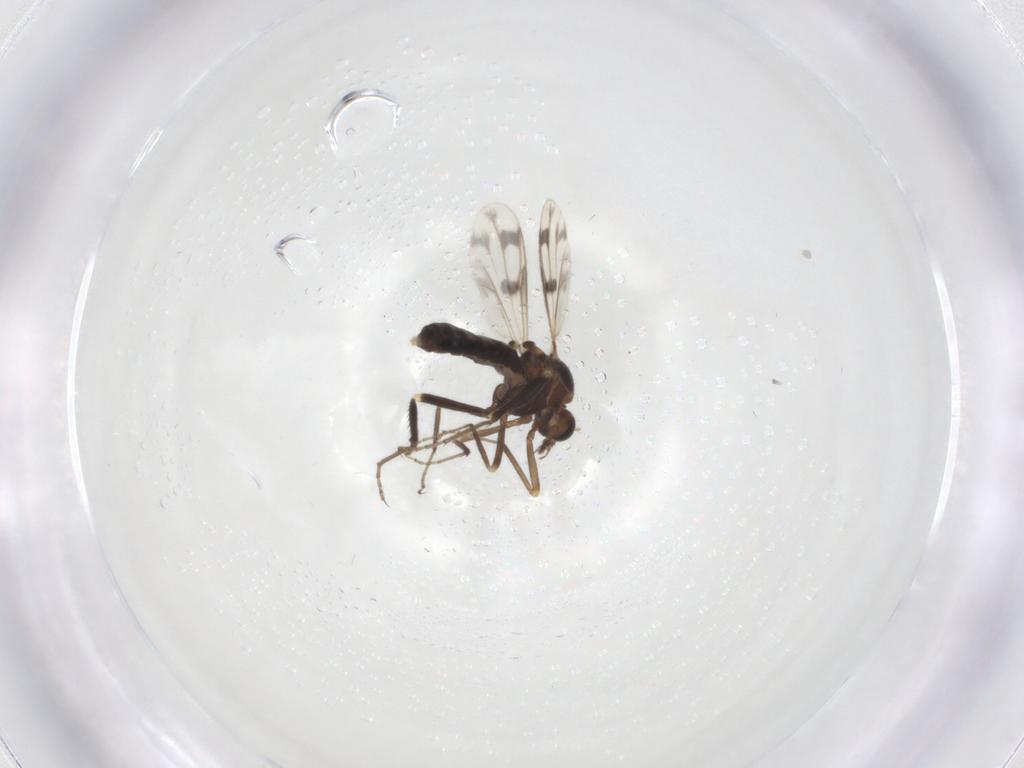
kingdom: Animalia
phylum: Arthropoda
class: Insecta
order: Diptera
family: Ceratopogonidae
